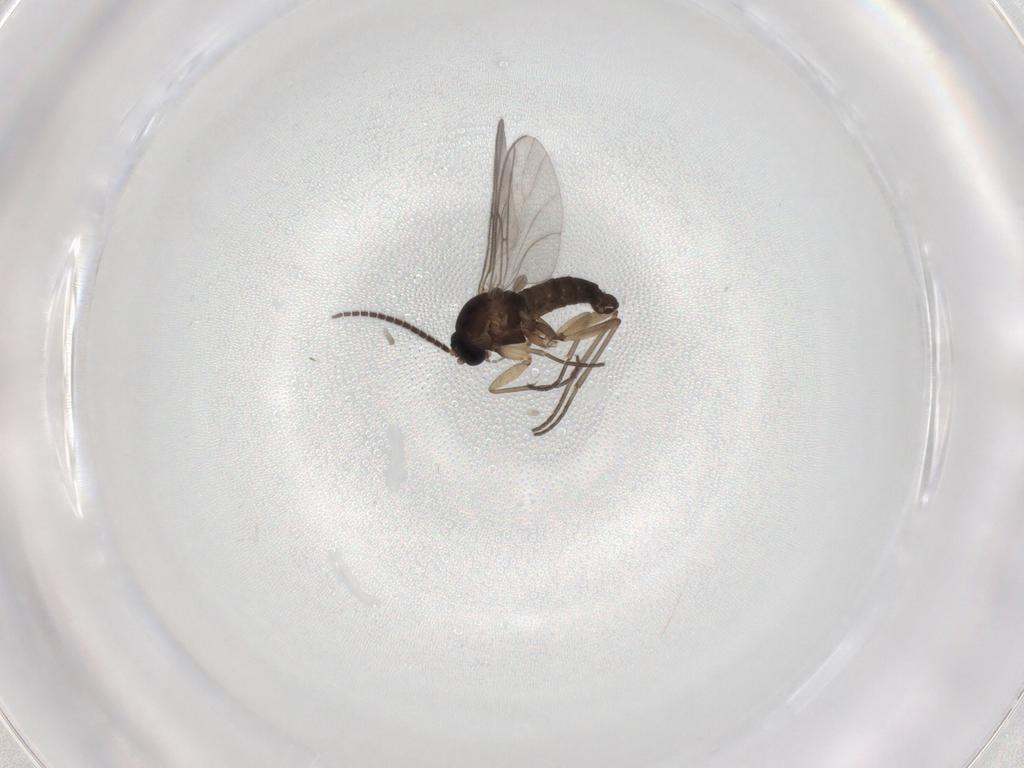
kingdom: Animalia
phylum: Arthropoda
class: Insecta
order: Diptera
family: Sciaridae
